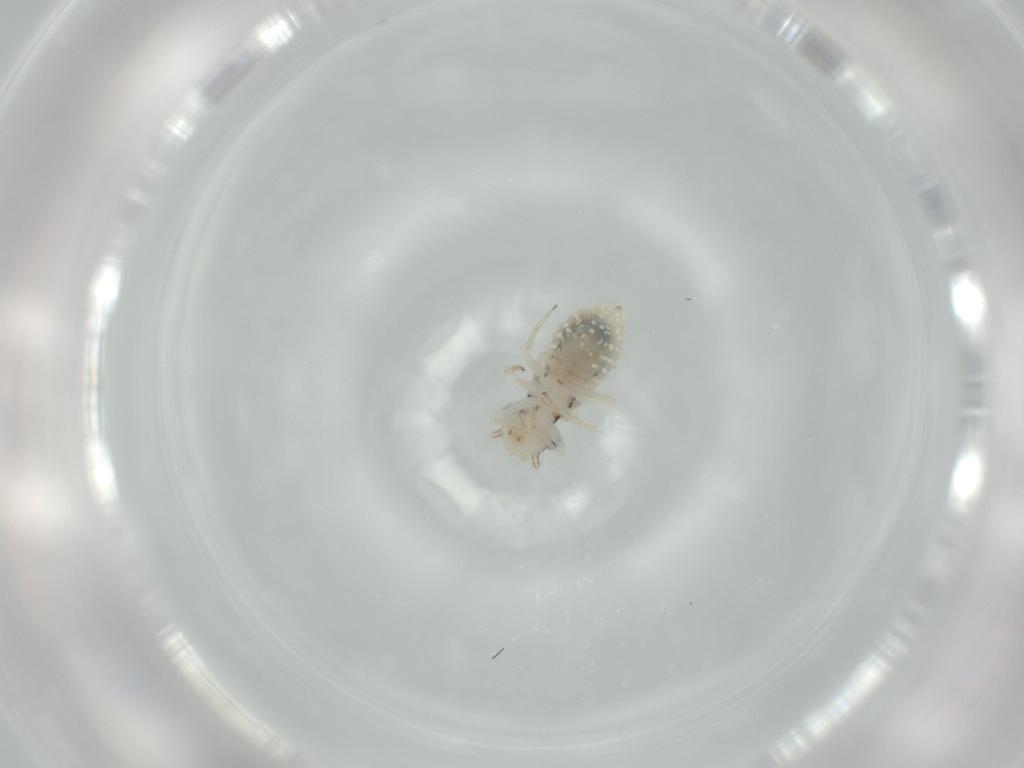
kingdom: Animalia
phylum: Arthropoda
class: Insecta
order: Psocodea
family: Pseudocaeciliidae
